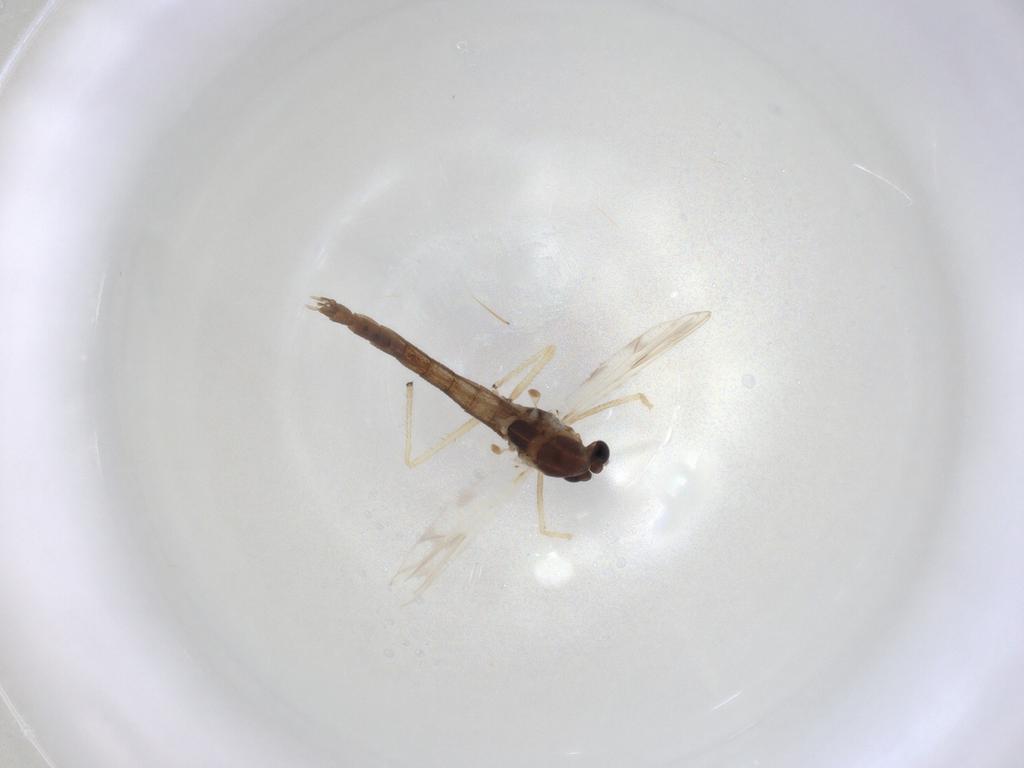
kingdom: Animalia
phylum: Arthropoda
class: Insecta
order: Diptera
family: Chironomidae
